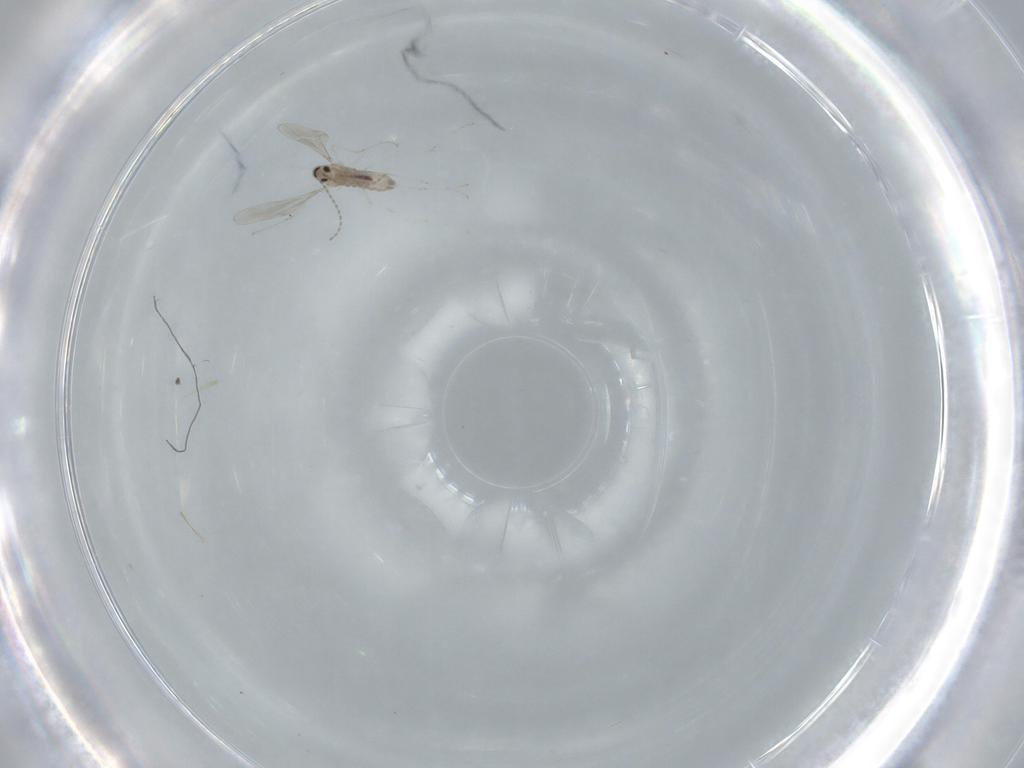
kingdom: Animalia
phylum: Arthropoda
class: Insecta
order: Diptera
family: Cecidomyiidae
